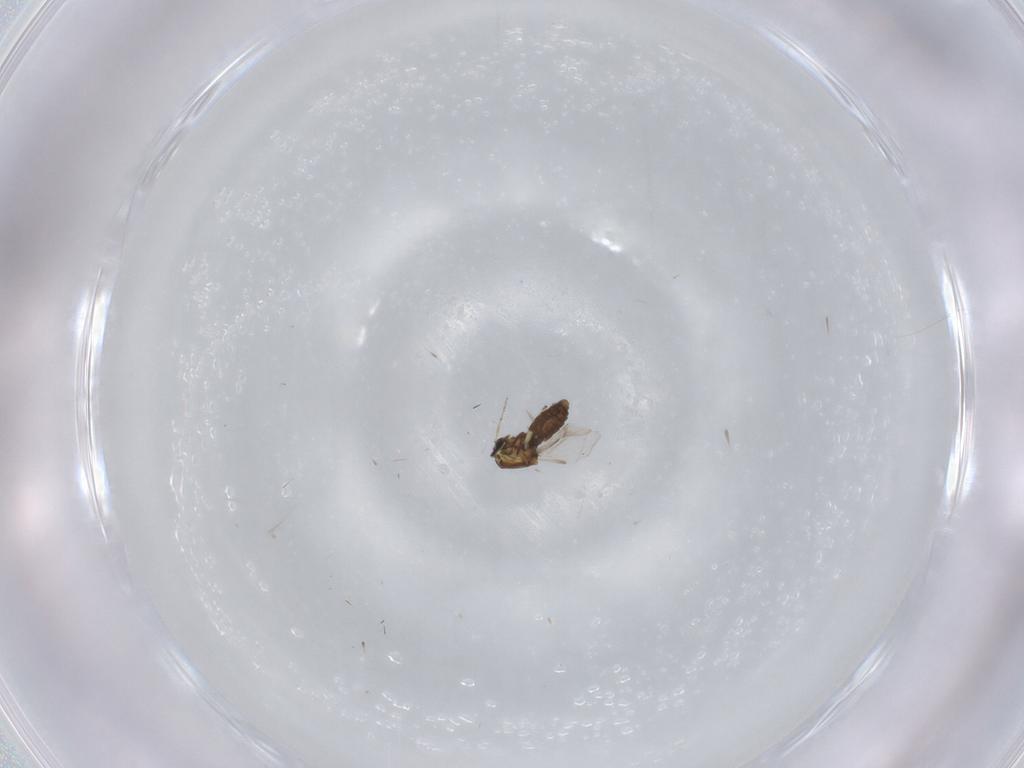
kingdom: Animalia
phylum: Arthropoda
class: Insecta
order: Diptera
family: Ceratopogonidae
